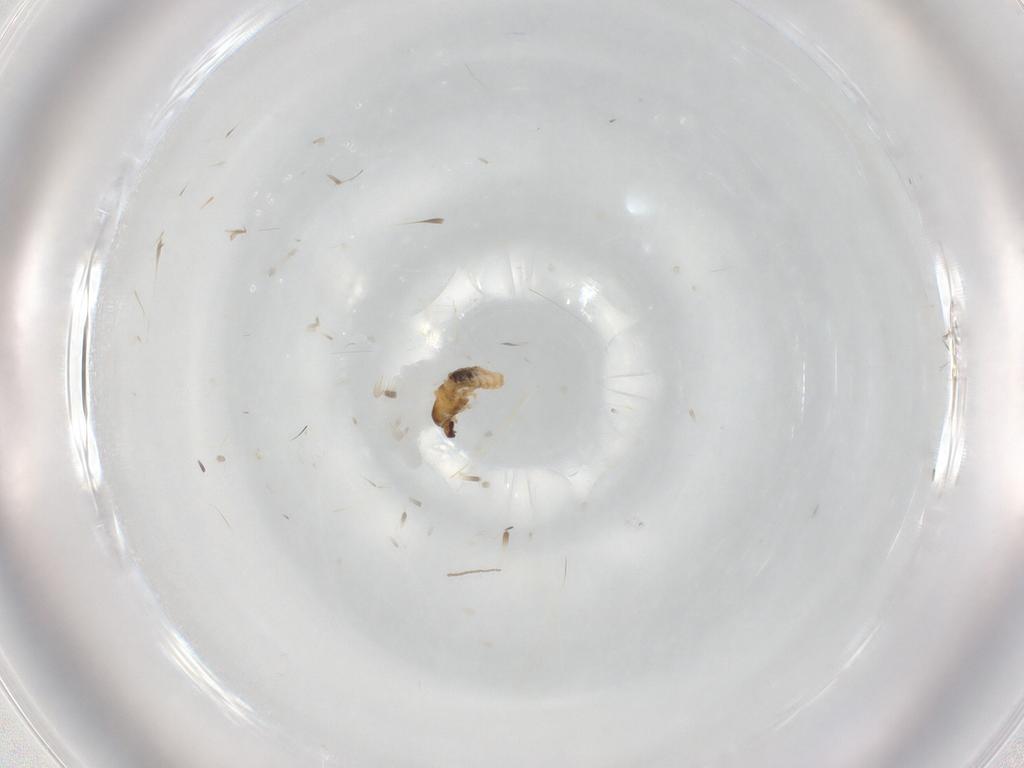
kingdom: Animalia
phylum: Arthropoda
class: Insecta
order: Diptera
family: Cecidomyiidae
